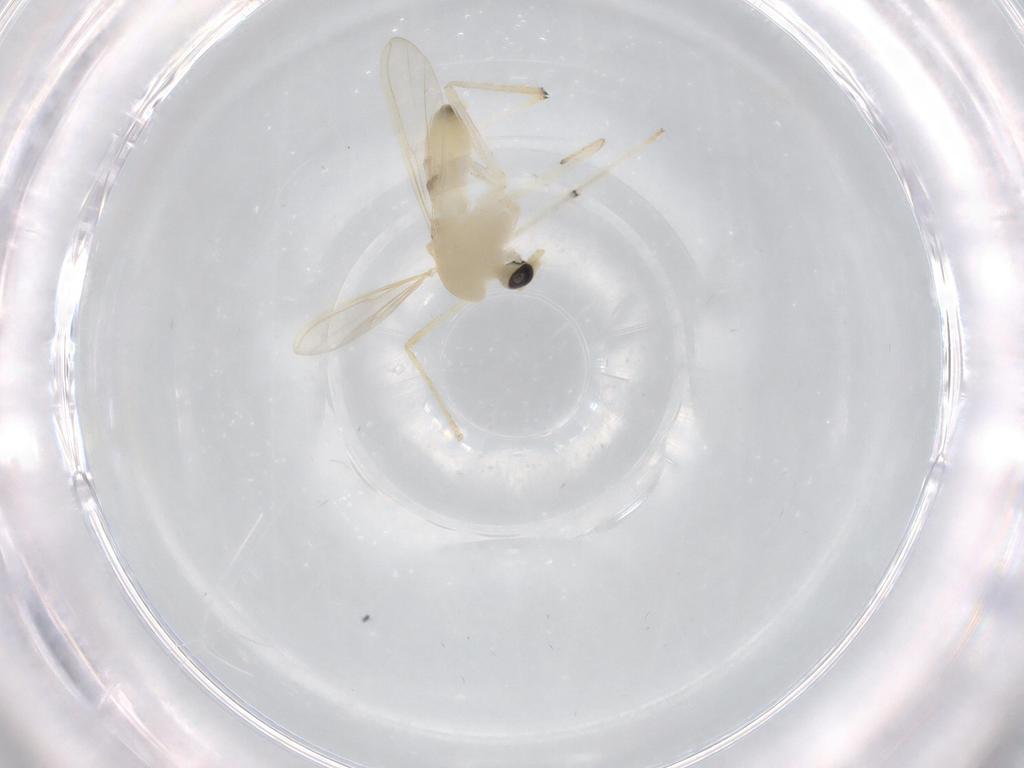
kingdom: Animalia
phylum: Arthropoda
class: Insecta
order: Diptera
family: Chironomidae
